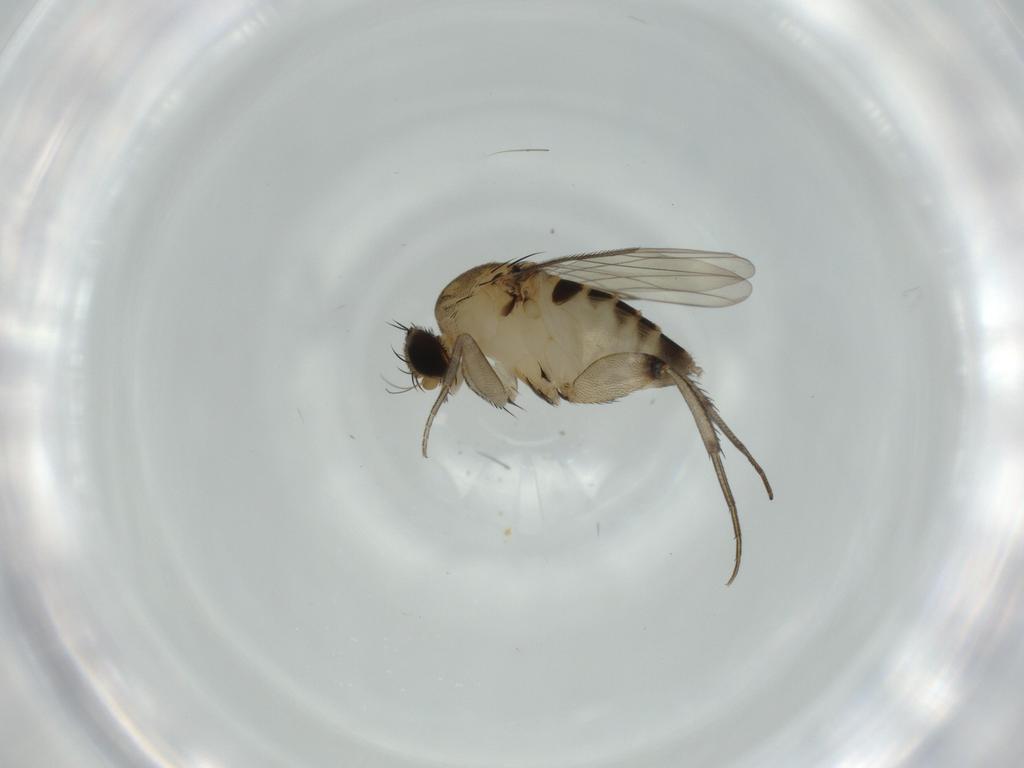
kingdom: Animalia
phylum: Arthropoda
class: Insecta
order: Diptera
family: Phoridae
